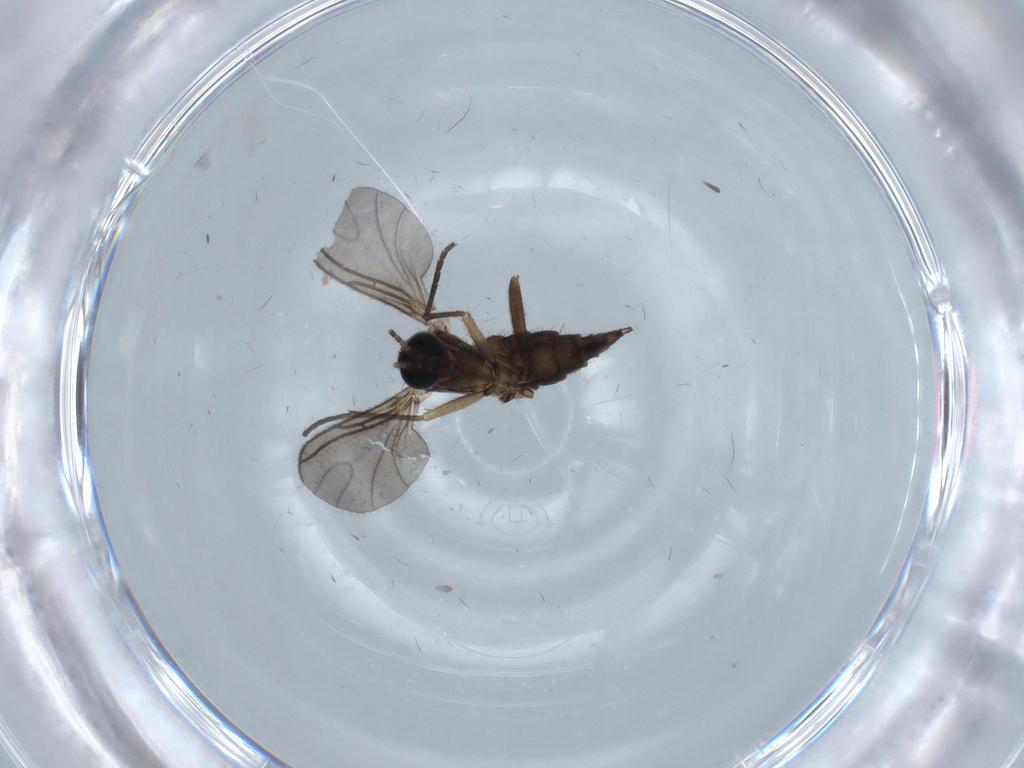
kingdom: Animalia
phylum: Arthropoda
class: Insecta
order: Diptera
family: Sciaridae
